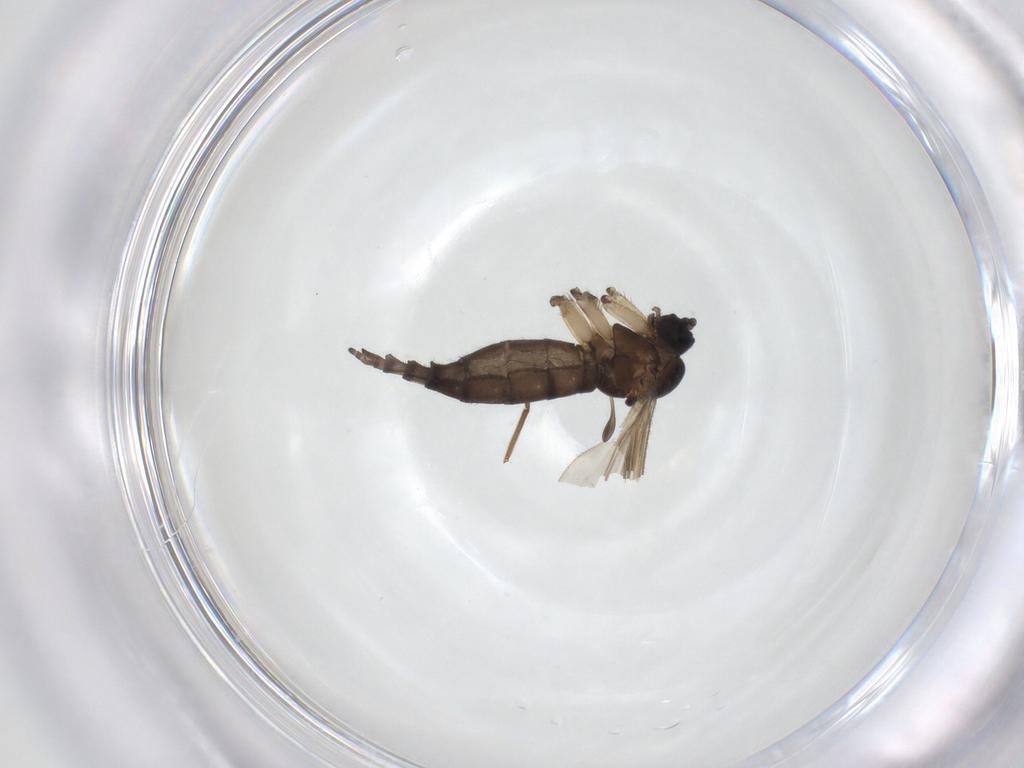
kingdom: Animalia
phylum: Arthropoda
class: Insecta
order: Diptera
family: Sciaridae
